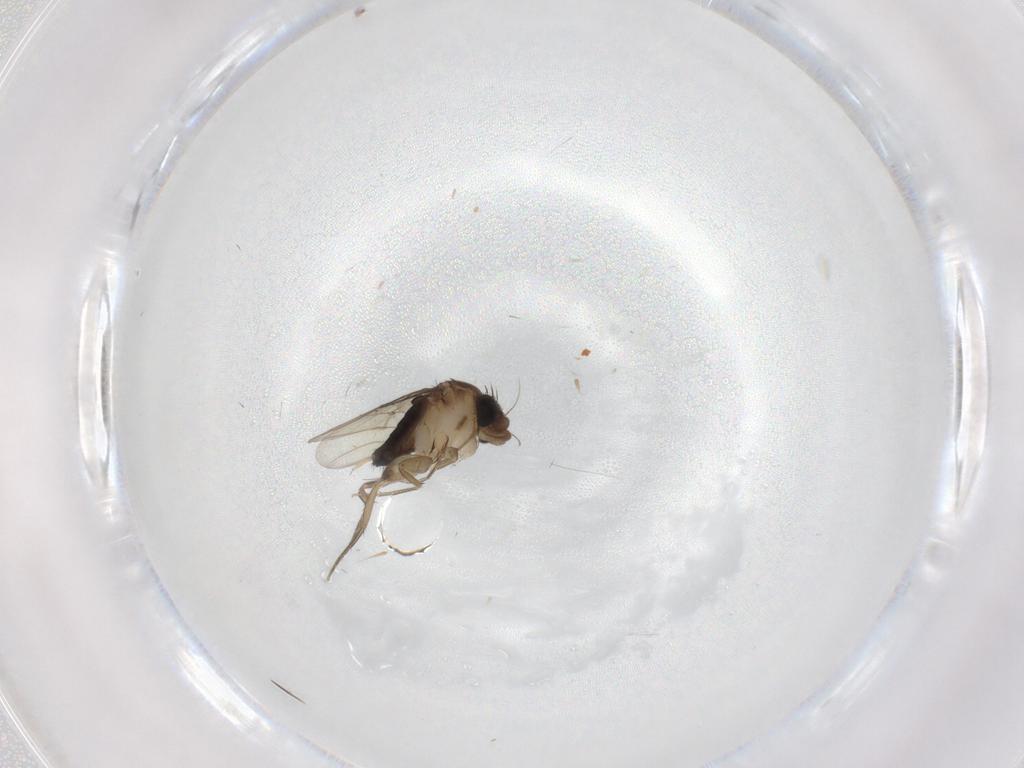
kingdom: Animalia
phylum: Arthropoda
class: Insecta
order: Diptera
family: Phoridae
